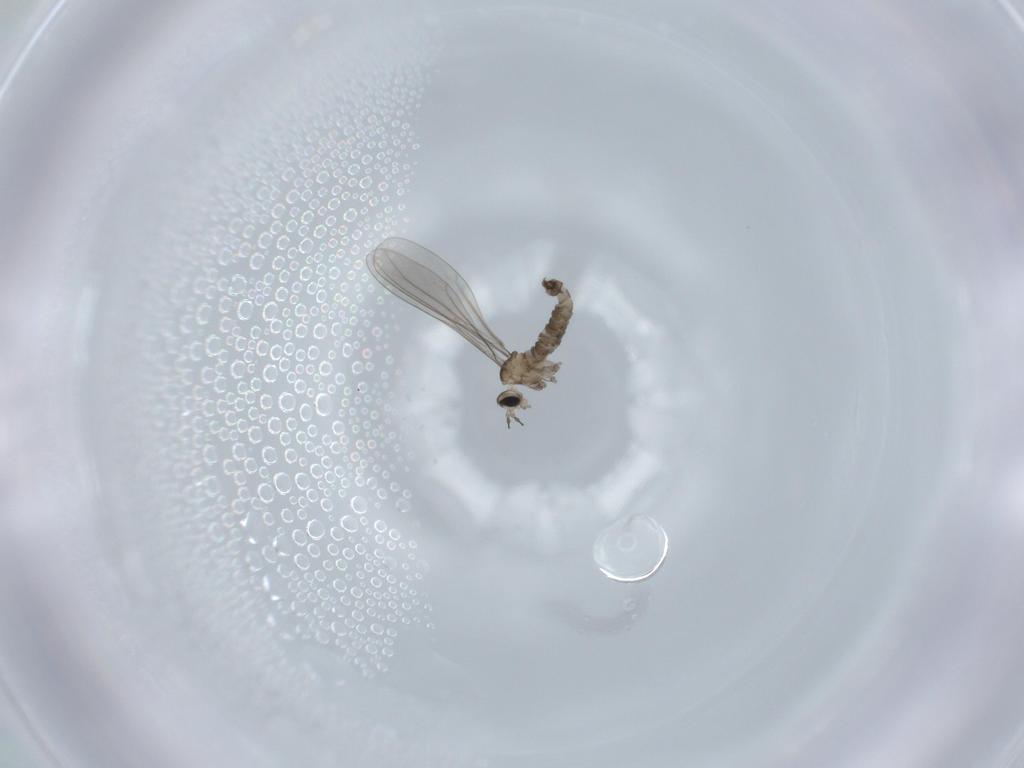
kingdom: Animalia
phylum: Arthropoda
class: Insecta
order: Diptera
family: Cecidomyiidae
